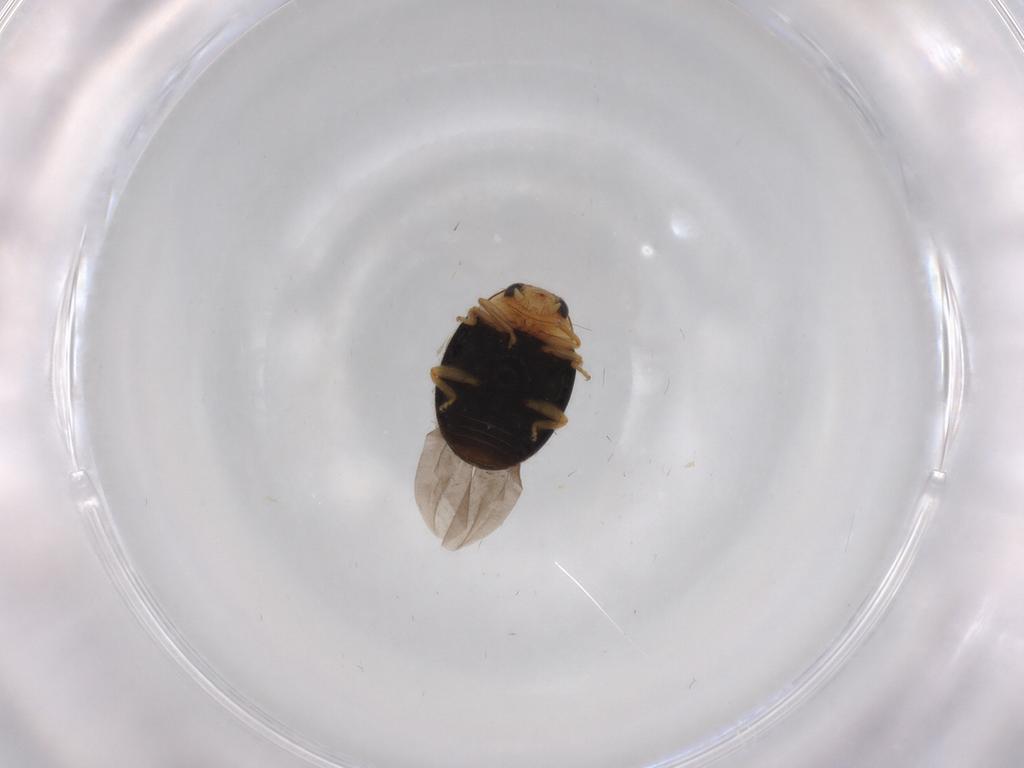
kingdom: Animalia
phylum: Arthropoda
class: Insecta
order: Coleoptera
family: Coccinellidae
